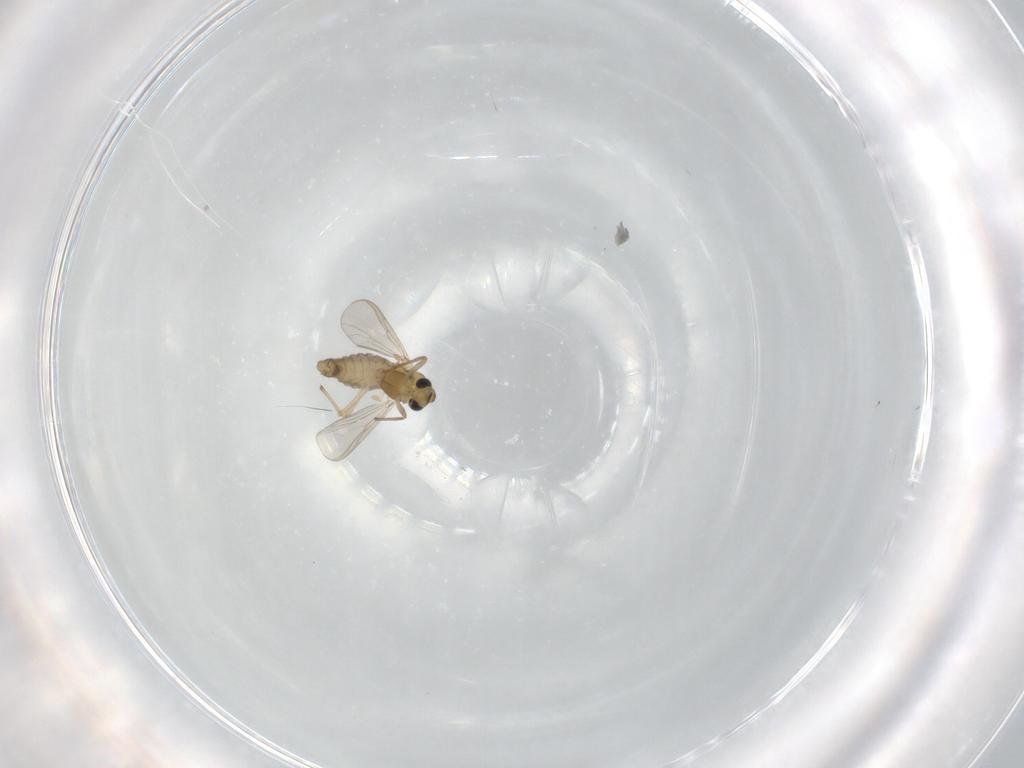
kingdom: Animalia
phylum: Arthropoda
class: Insecta
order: Diptera
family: Chironomidae
